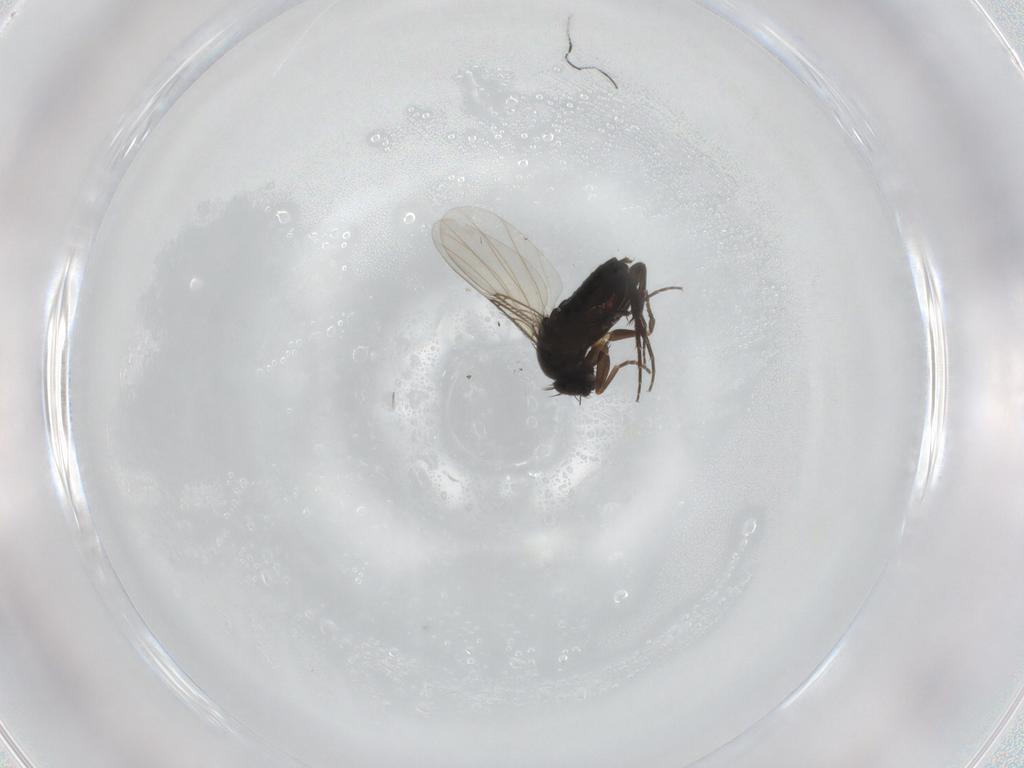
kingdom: Animalia
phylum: Arthropoda
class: Insecta
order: Diptera
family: Phoridae
